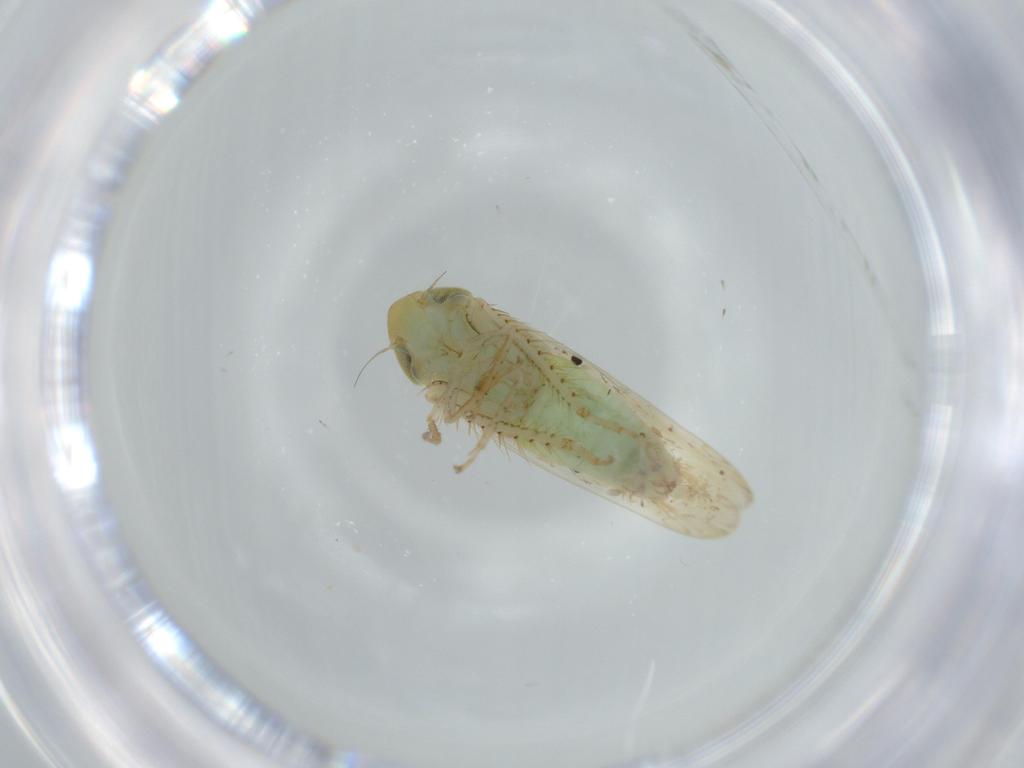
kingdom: Animalia
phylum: Arthropoda
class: Insecta
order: Hemiptera
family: Cicadellidae
